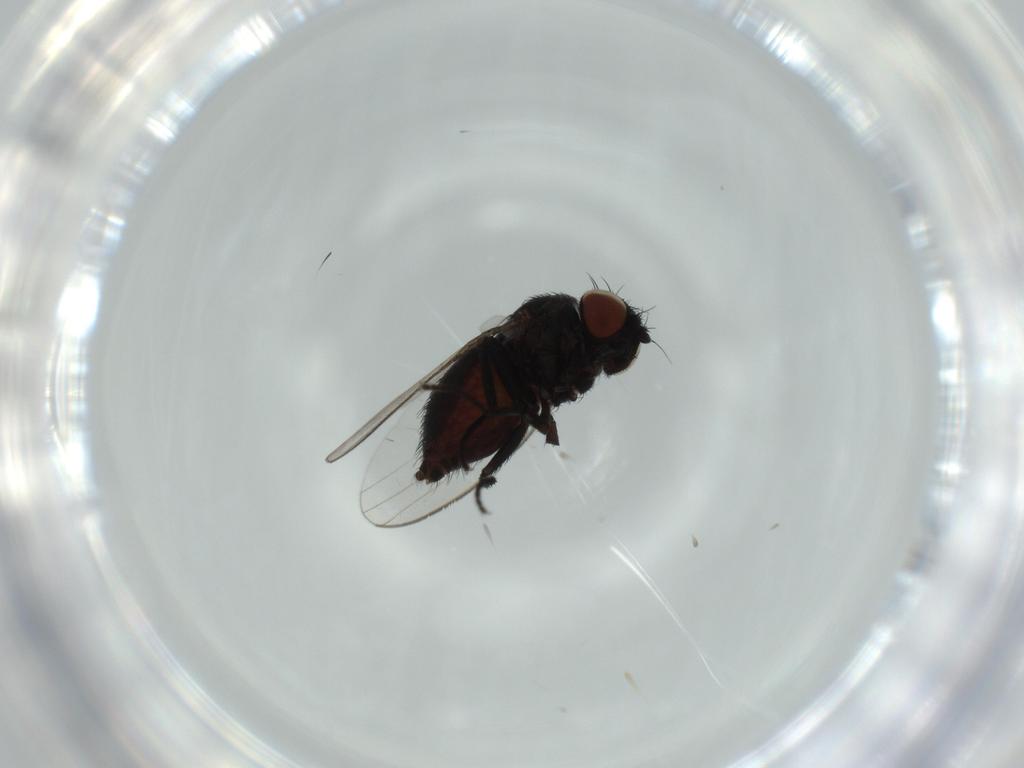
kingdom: Animalia
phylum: Arthropoda
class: Insecta
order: Diptera
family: Milichiidae
